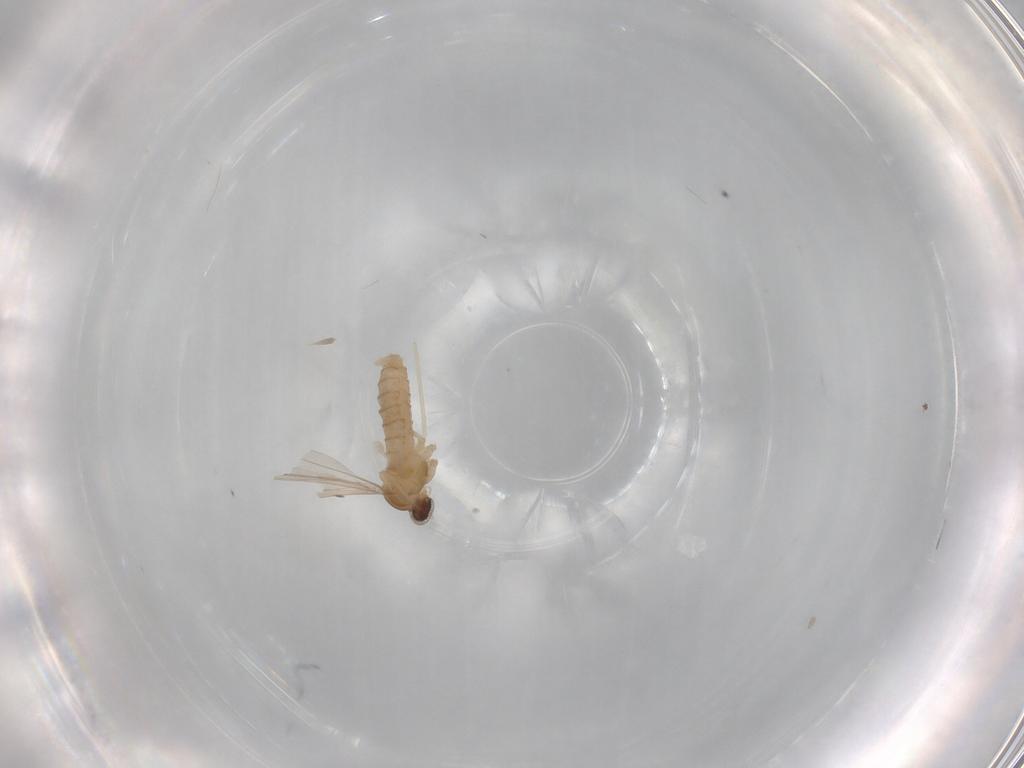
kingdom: Animalia
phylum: Arthropoda
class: Insecta
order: Diptera
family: Cecidomyiidae
